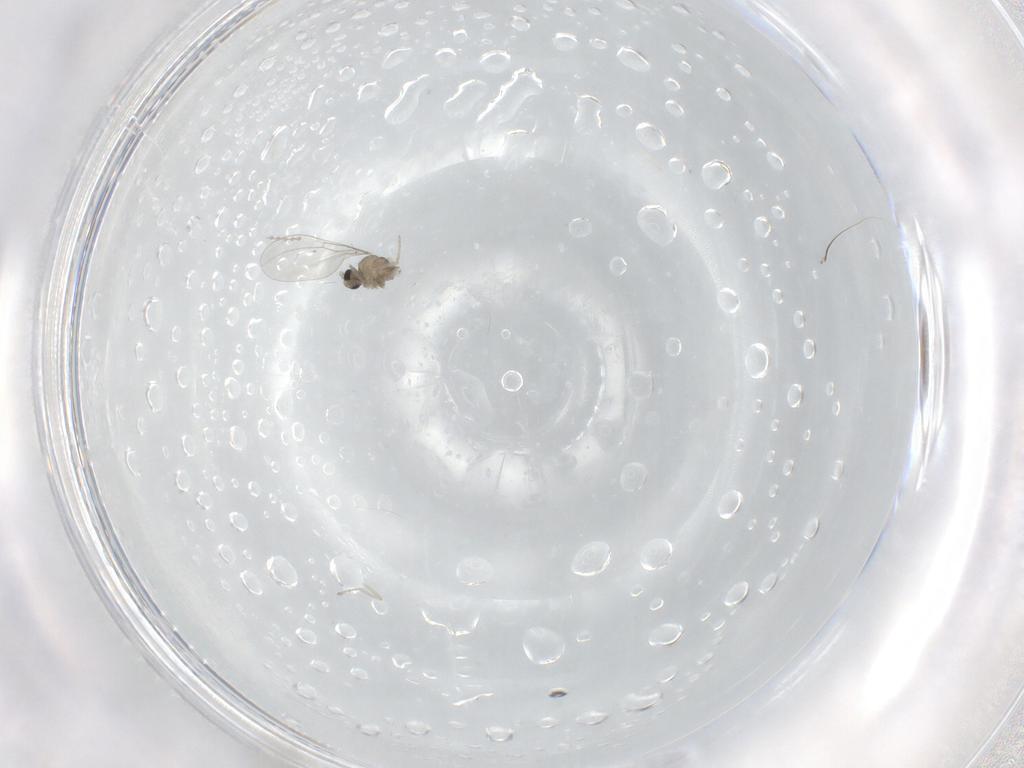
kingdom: Animalia
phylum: Arthropoda
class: Insecta
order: Diptera
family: Cecidomyiidae
